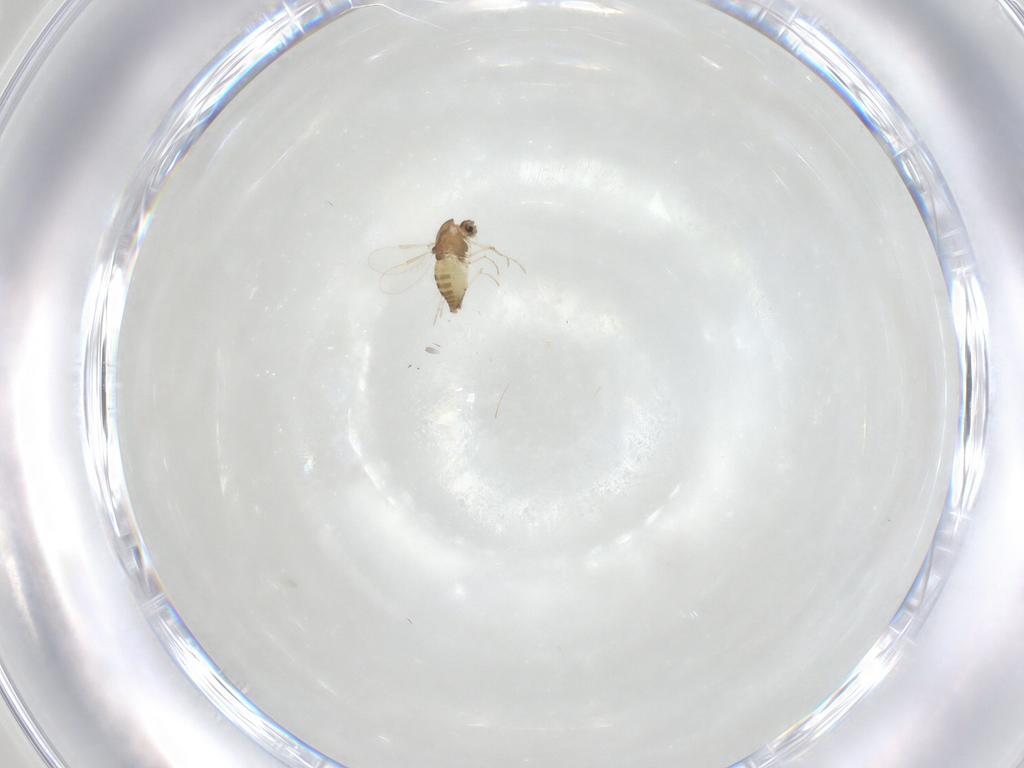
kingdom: Animalia
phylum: Arthropoda
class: Insecta
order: Diptera
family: Chironomidae
